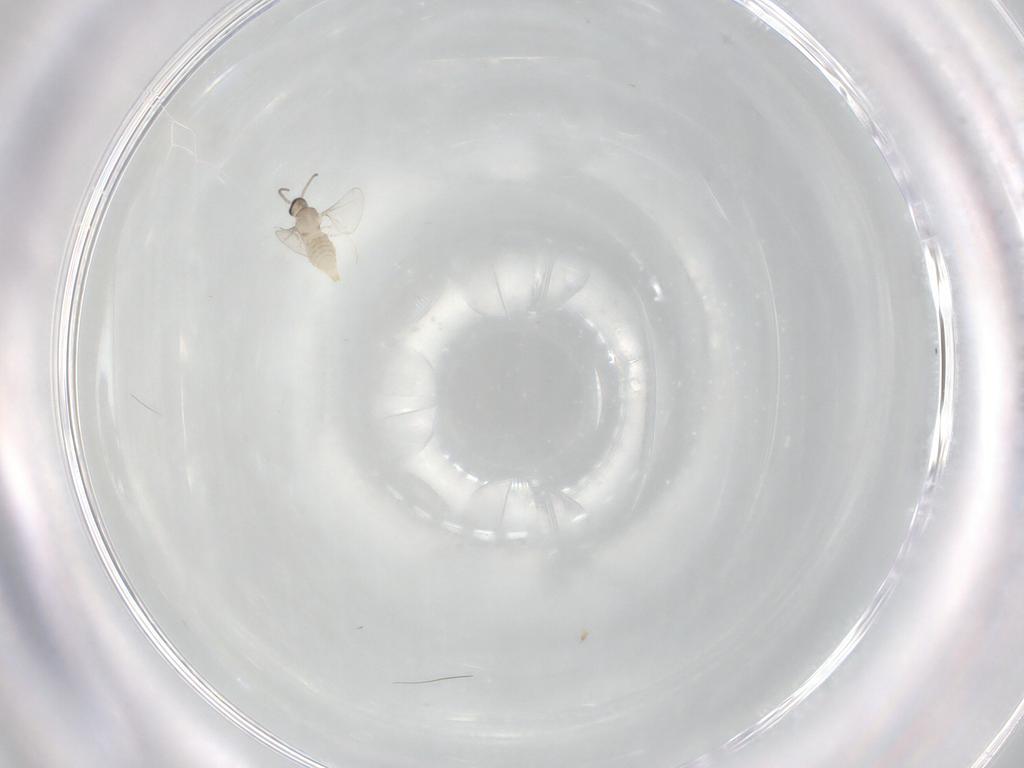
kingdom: Animalia
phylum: Arthropoda
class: Insecta
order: Diptera
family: Cecidomyiidae
